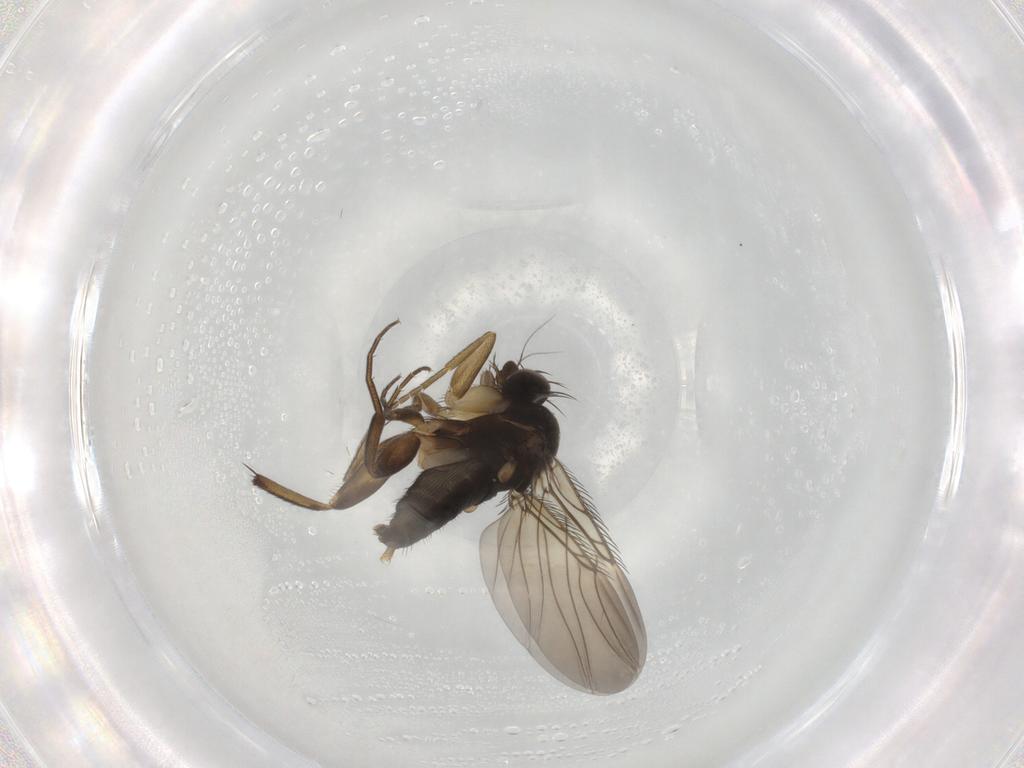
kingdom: Animalia
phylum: Arthropoda
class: Insecta
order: Diptera
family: Phoridae
